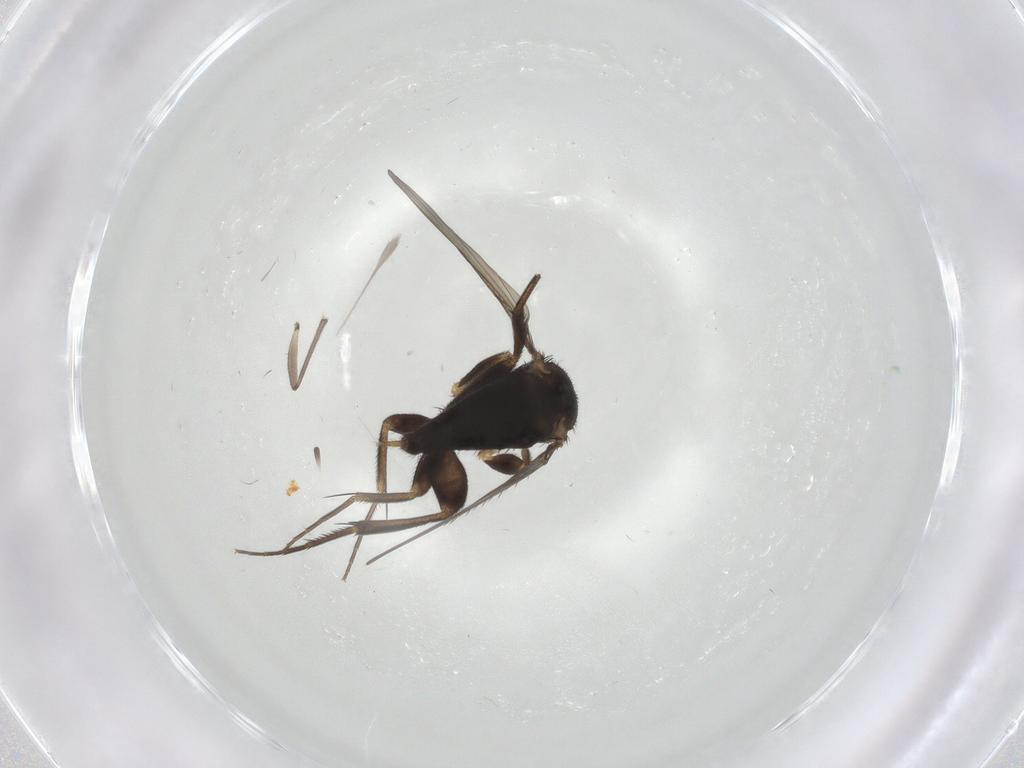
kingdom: Animalia
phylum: Arthropoda
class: Insecta
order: Diptera
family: Phoridae
